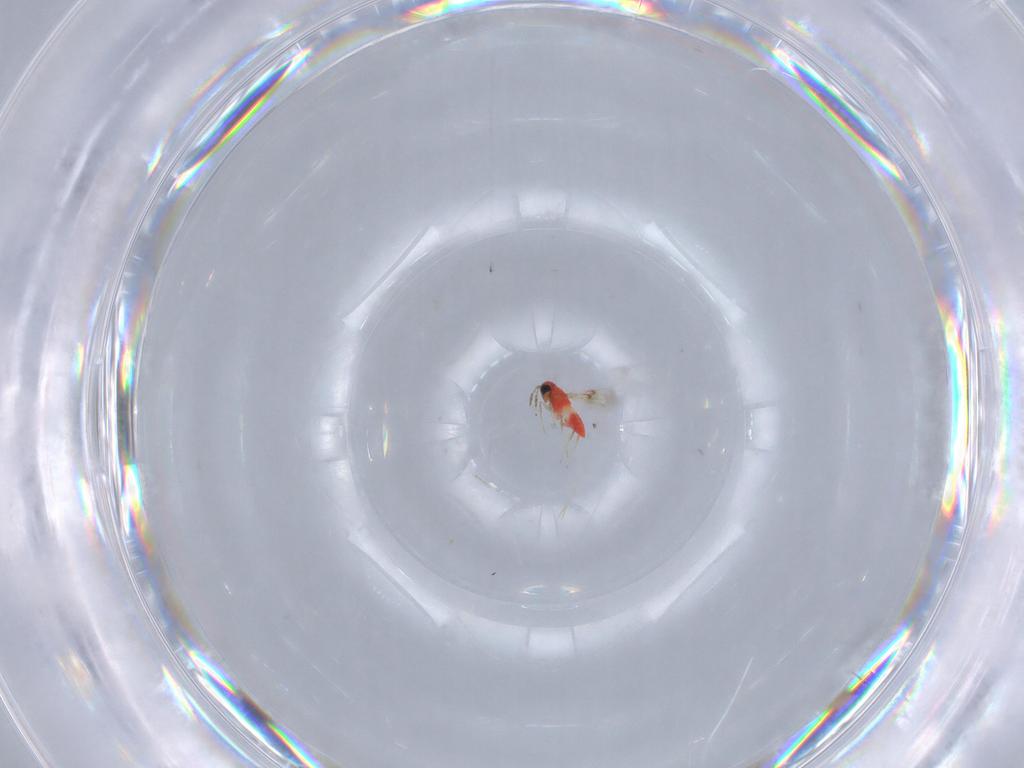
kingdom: Animalia
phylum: Arthropoda
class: Insecta
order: Hymenoptera
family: Trichogrammatidae
